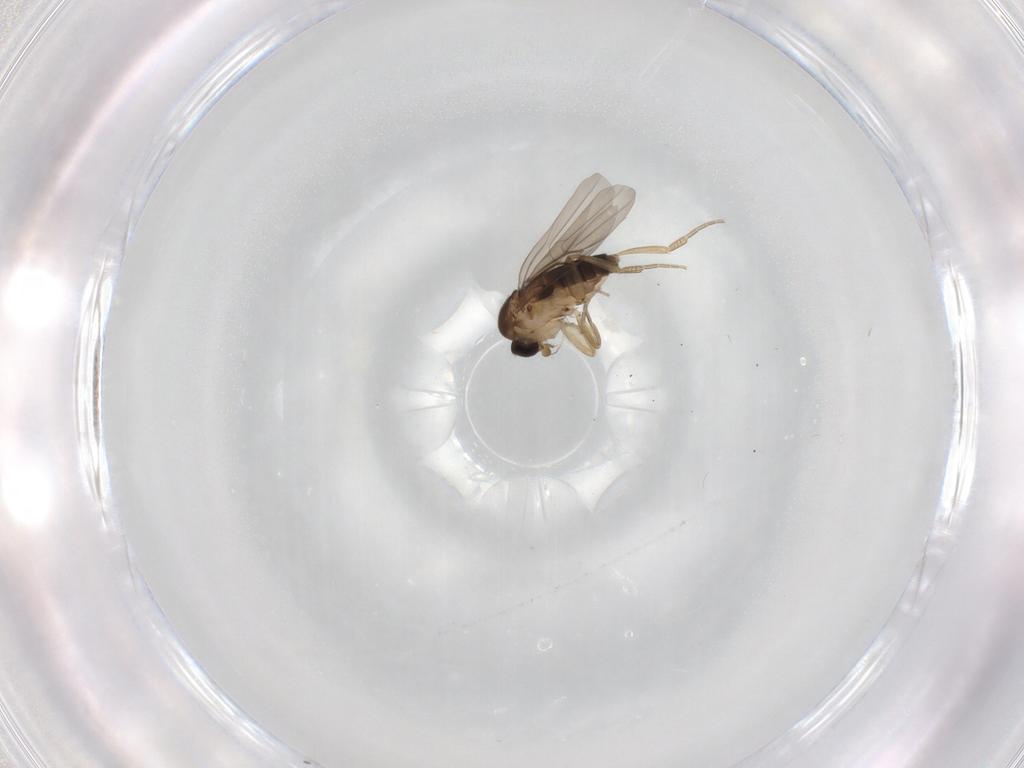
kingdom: Animalia
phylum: Arthropoda
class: Insecta
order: Diptera
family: Phoridae
